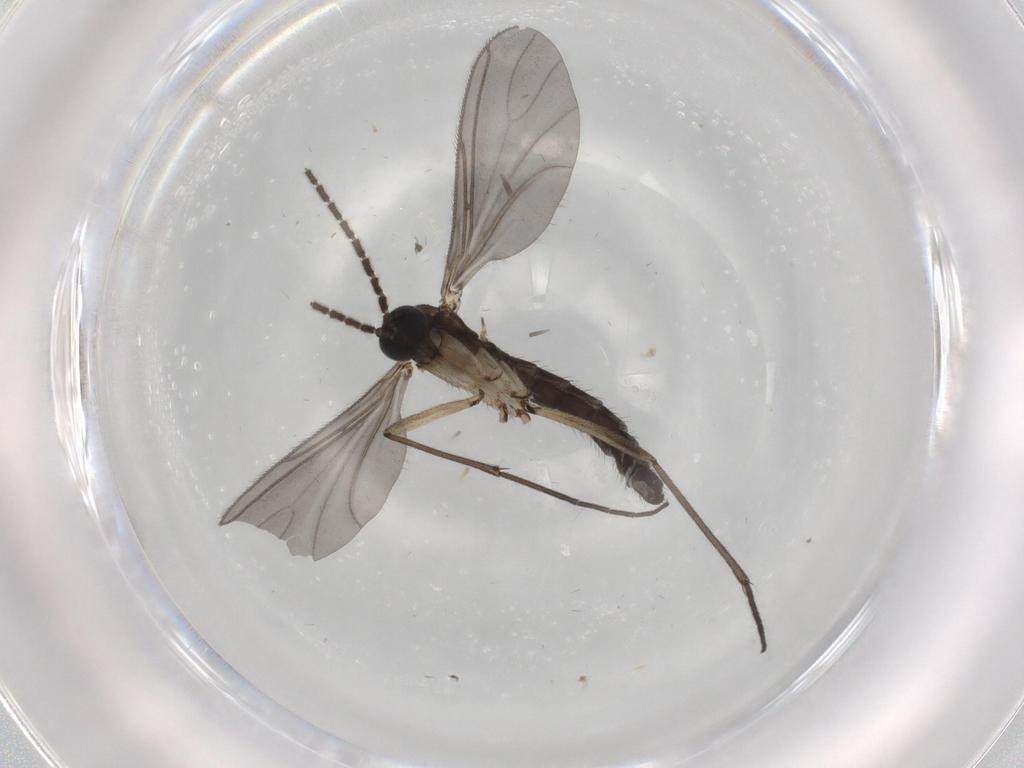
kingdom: Animalia
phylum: Arthropoda
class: Insecta
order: Diptera
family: Sciaridae
